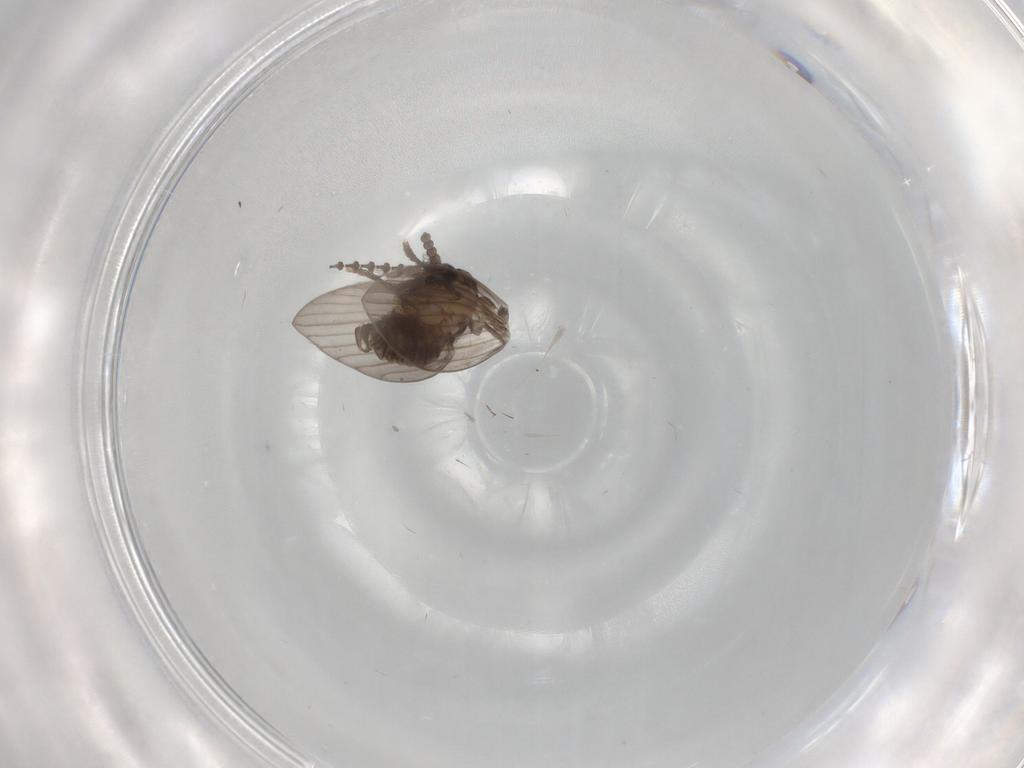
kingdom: Animalia
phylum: Arthropoda
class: Insecta
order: Diptera
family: Psychodidae
